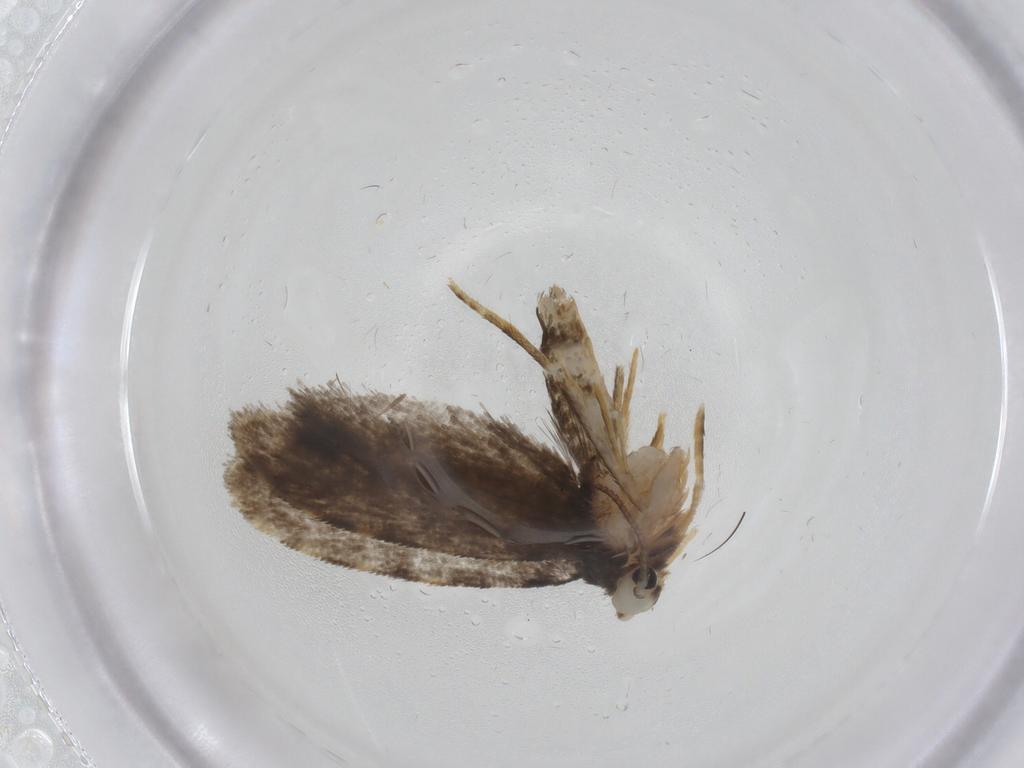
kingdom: Animalia
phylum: Arthropoda
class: Insecta
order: Lepidoptera
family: Psychidae
